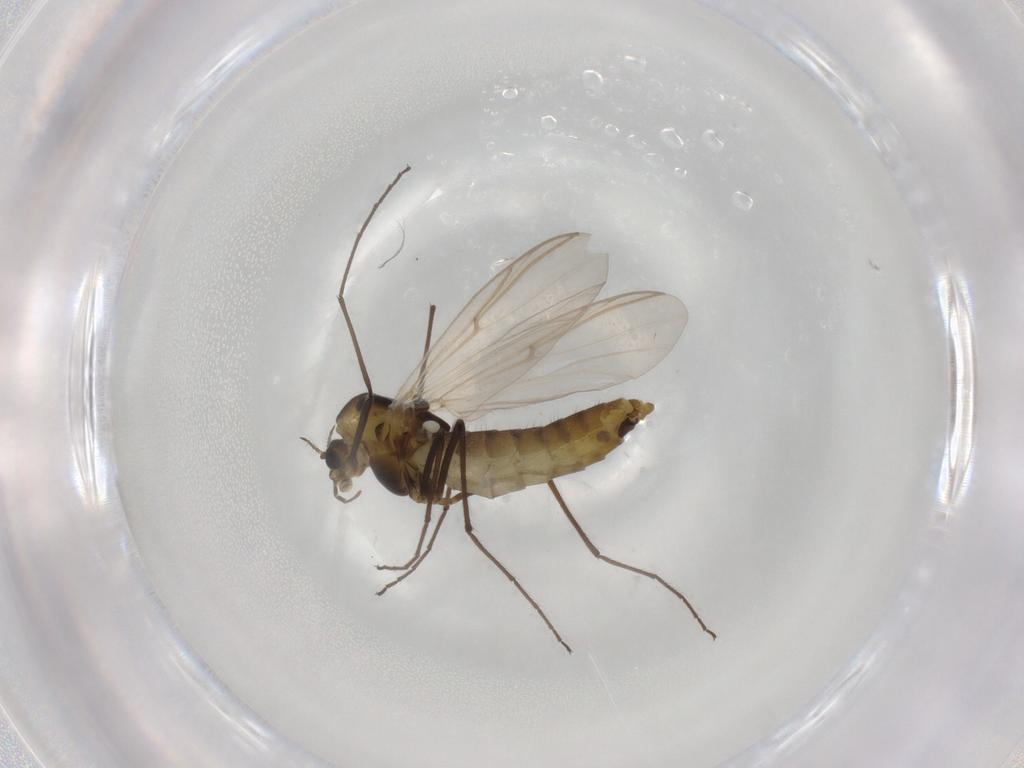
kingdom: Animalia
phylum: Arthropoda
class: Insecta
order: Diptera
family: Chironomidae
